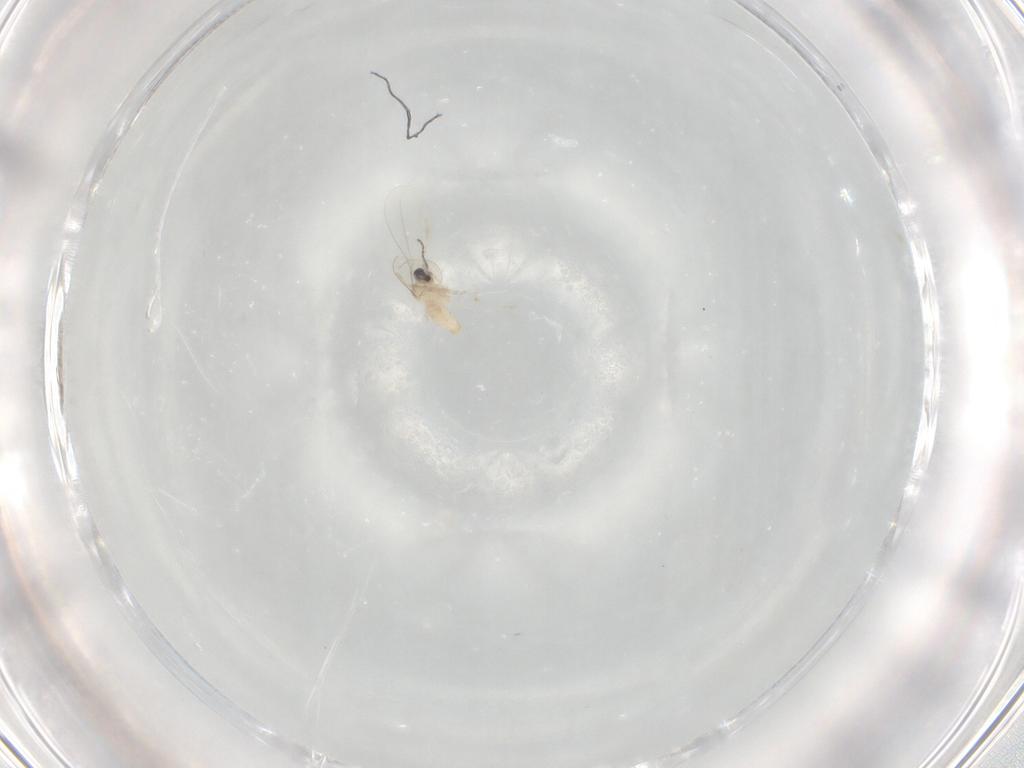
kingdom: Animalia
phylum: Arthropoda
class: Insecta
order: Diptera
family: Cecidomyiidae
